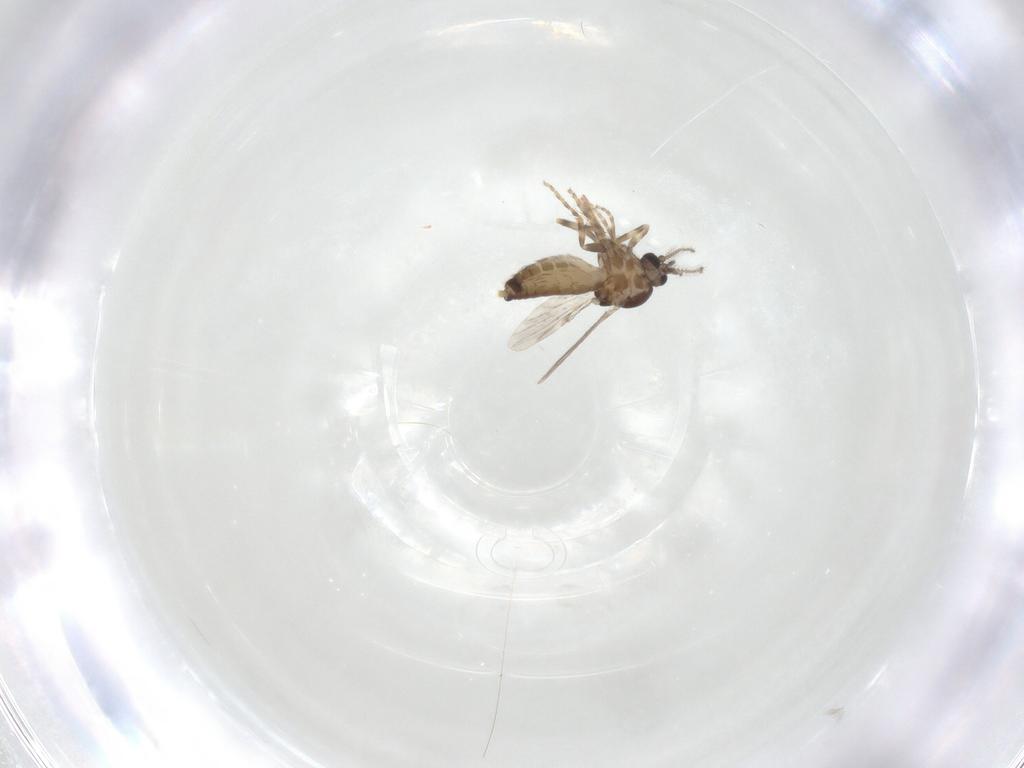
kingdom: Animalia
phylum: Arthropoda
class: Insecta
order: Diptera
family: Ceratopogonidae
